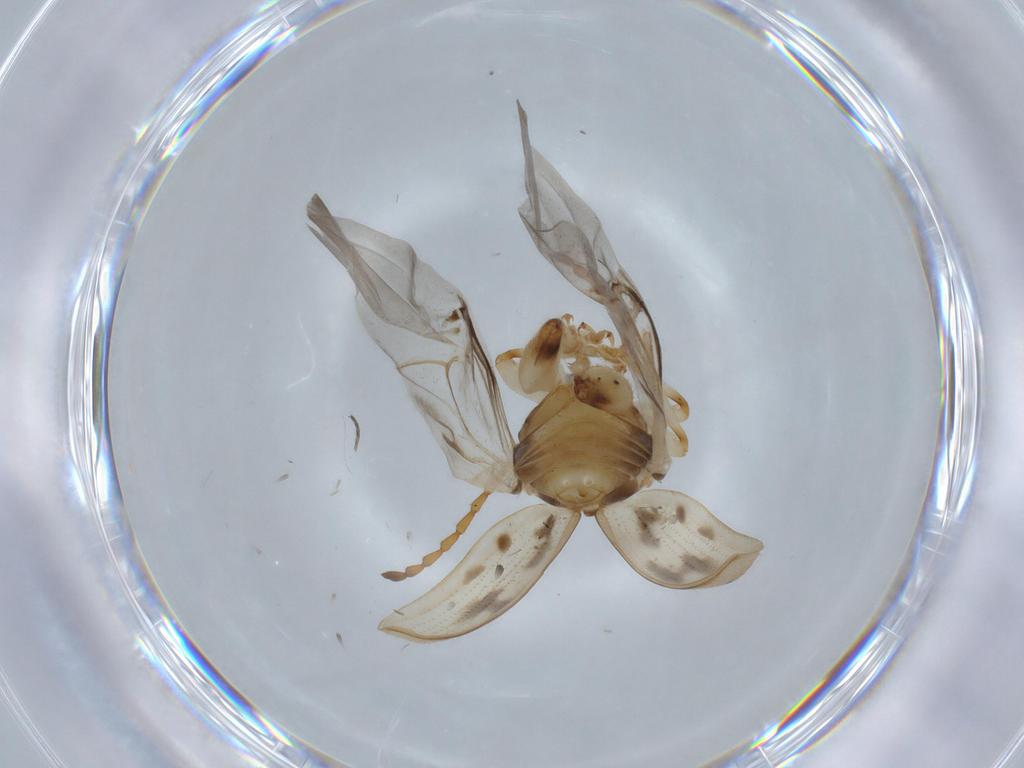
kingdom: Animalia
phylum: Arthropoda
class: Insecta
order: Coleoptera
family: Chrysomelidae
